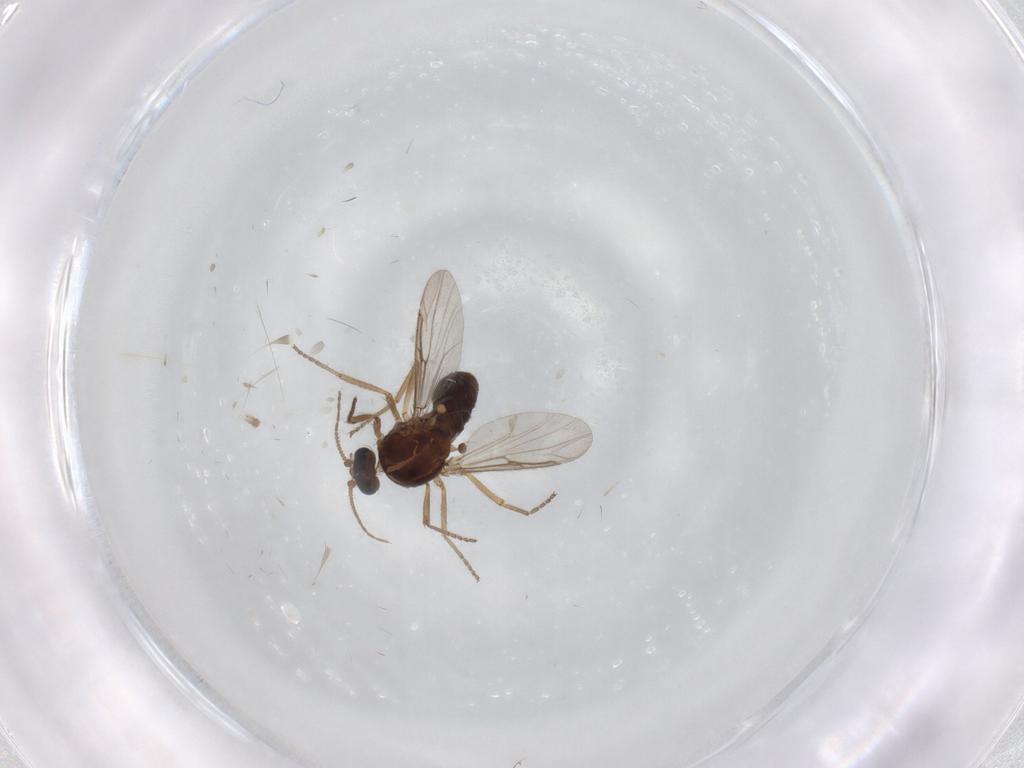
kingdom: Animalia
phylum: Arthropoda
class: Insecta
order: Diptera
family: Ceratopogonidae
